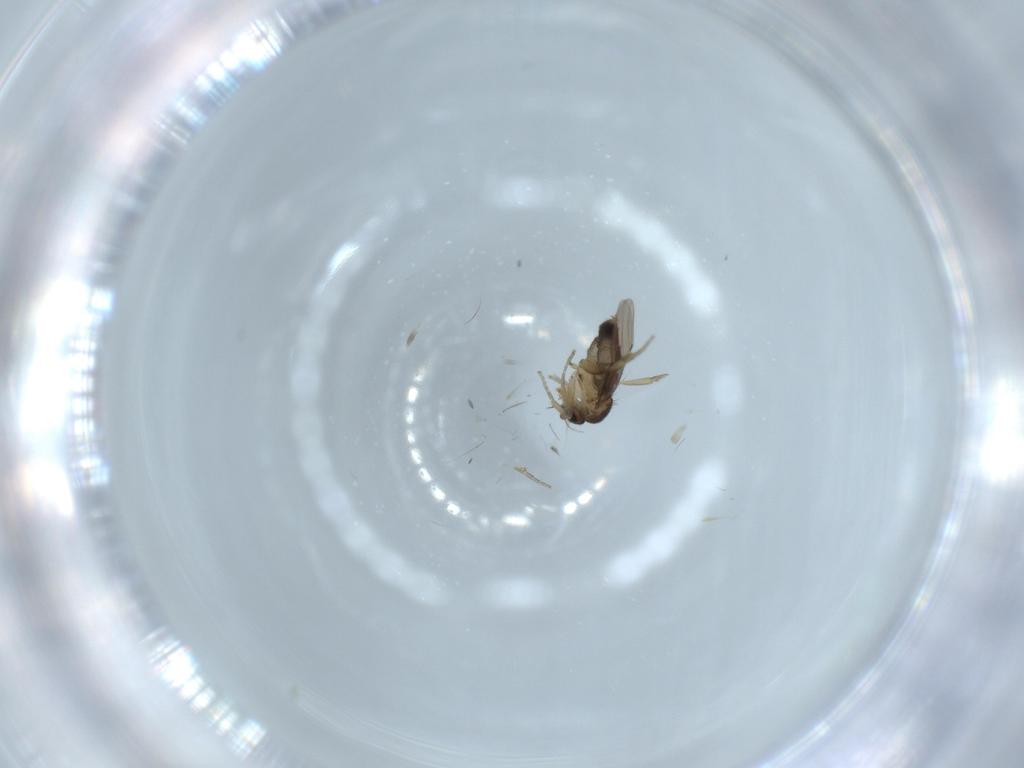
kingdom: Animalia
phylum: Arthropoda
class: Insecta
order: Diptera
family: Phoridae
